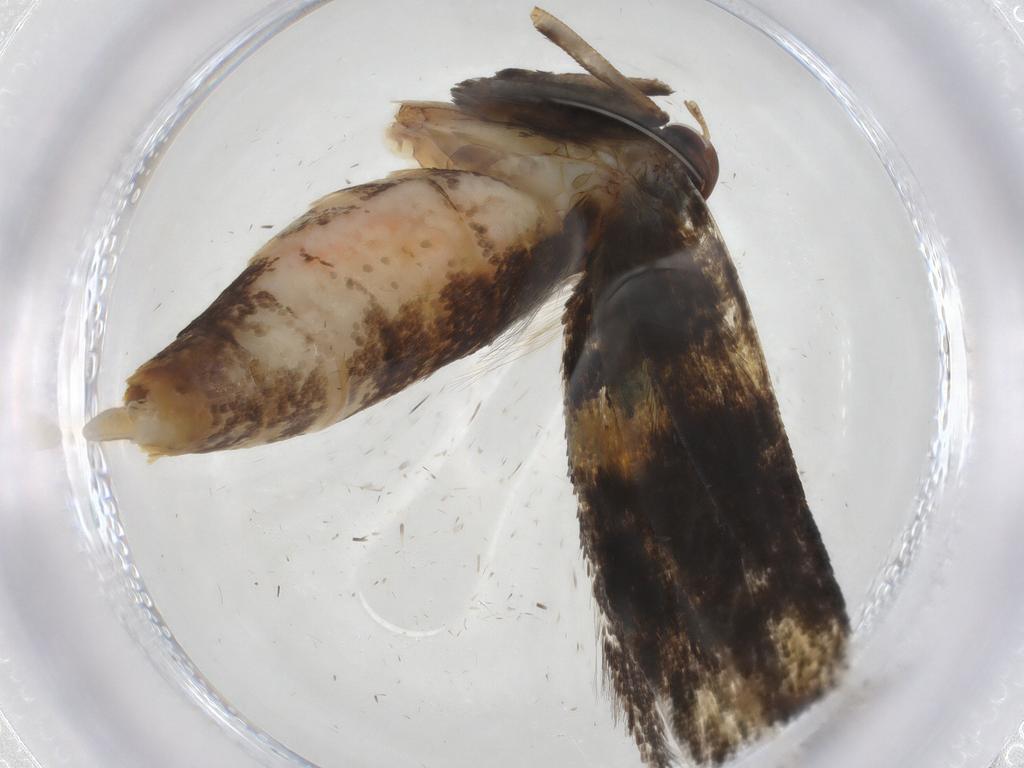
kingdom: Animalia
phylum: Arthropoda
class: Insecta
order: Lepidoptera
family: Gelechiidae
